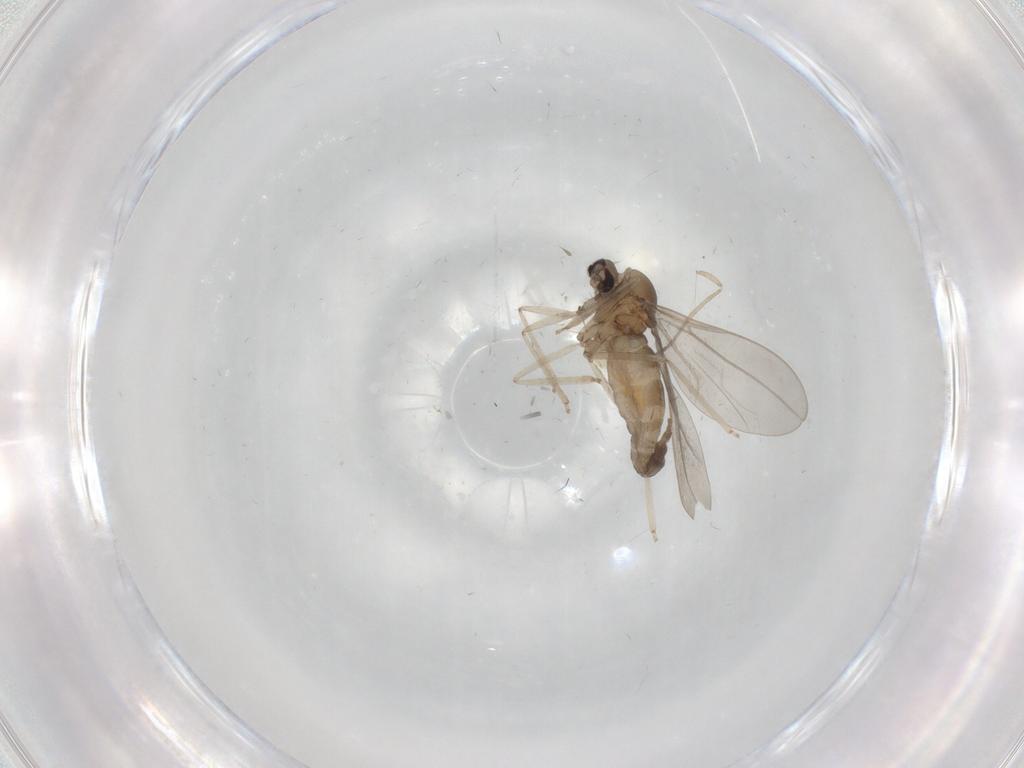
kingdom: Animalia
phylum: Arthropoda
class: Insecta
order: Diptera
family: Cecidomyiidae
